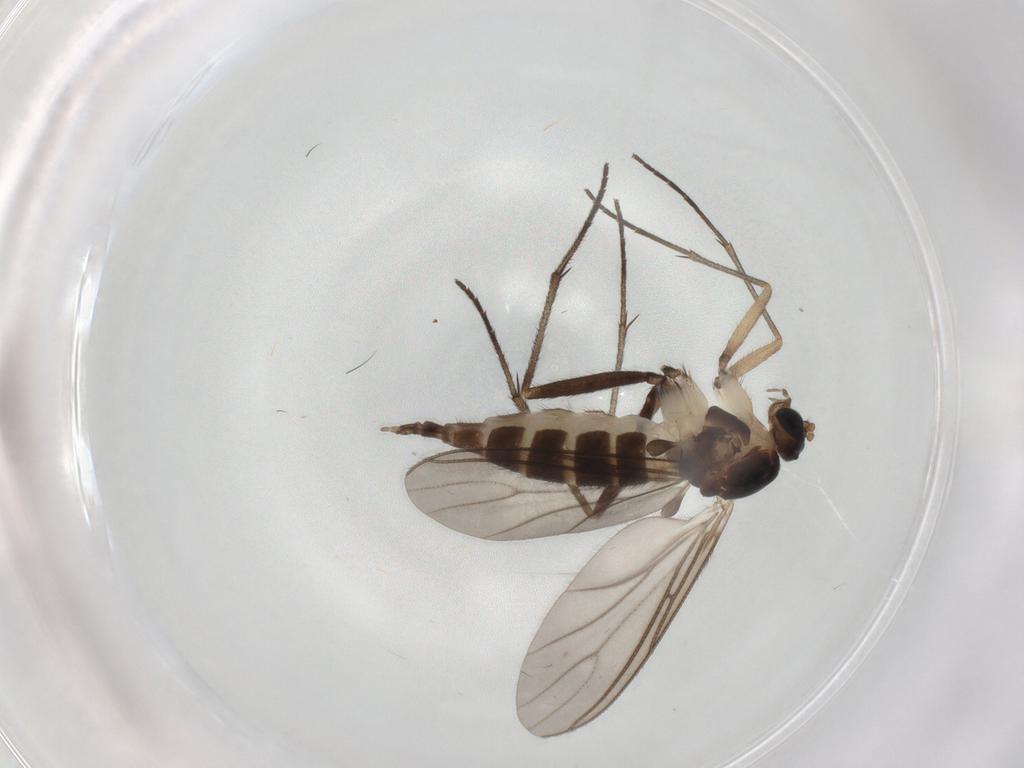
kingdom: Animalia
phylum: Arthropoda
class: Insecta
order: Diptera
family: Sciaridae
